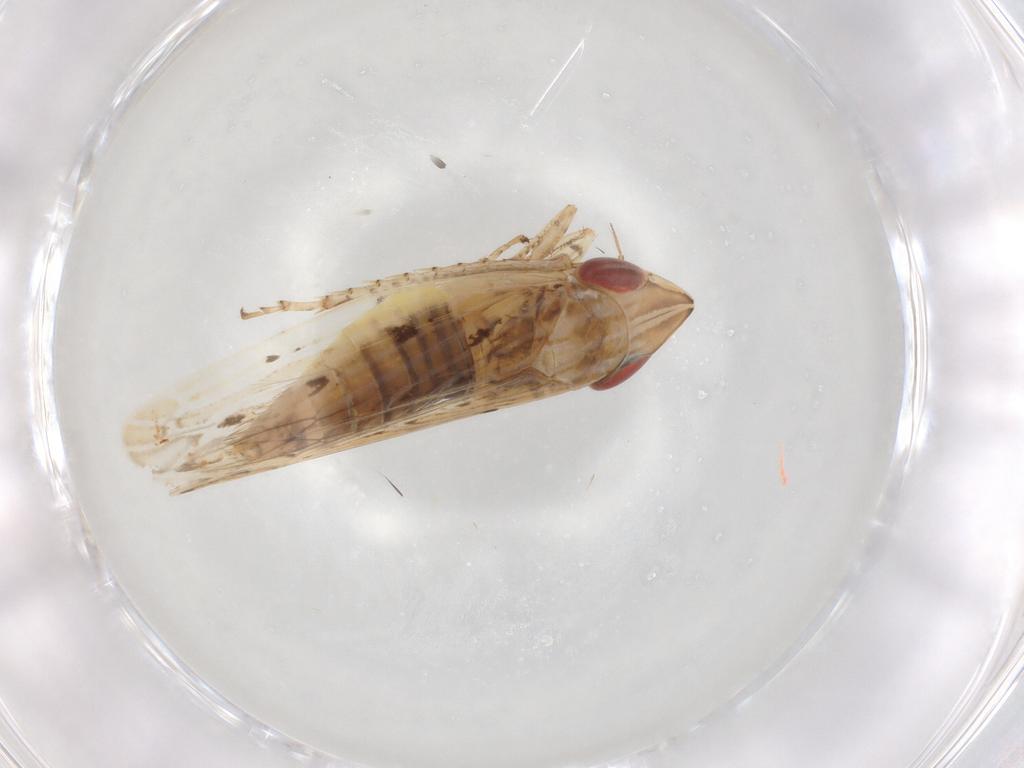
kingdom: Animalia
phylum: Arthropoda
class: Insecta
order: Hemiptera
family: Cicadellidae
